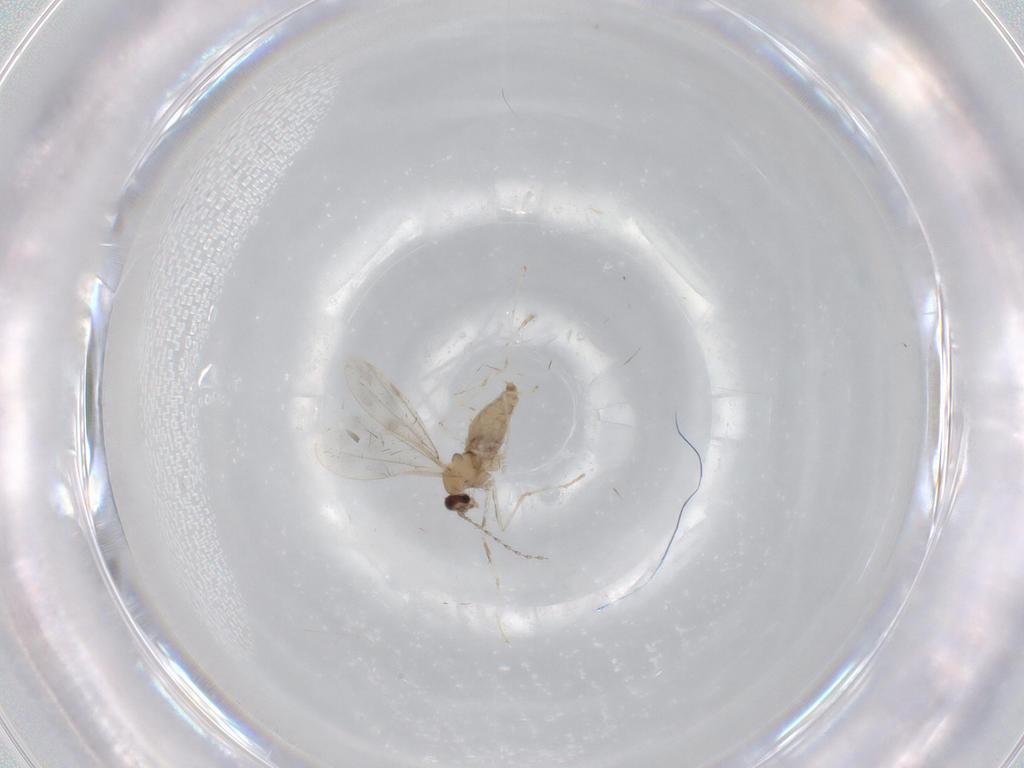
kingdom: Animalia
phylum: Arthropoda
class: Insecta
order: Diptera
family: Cecidomyiidae
